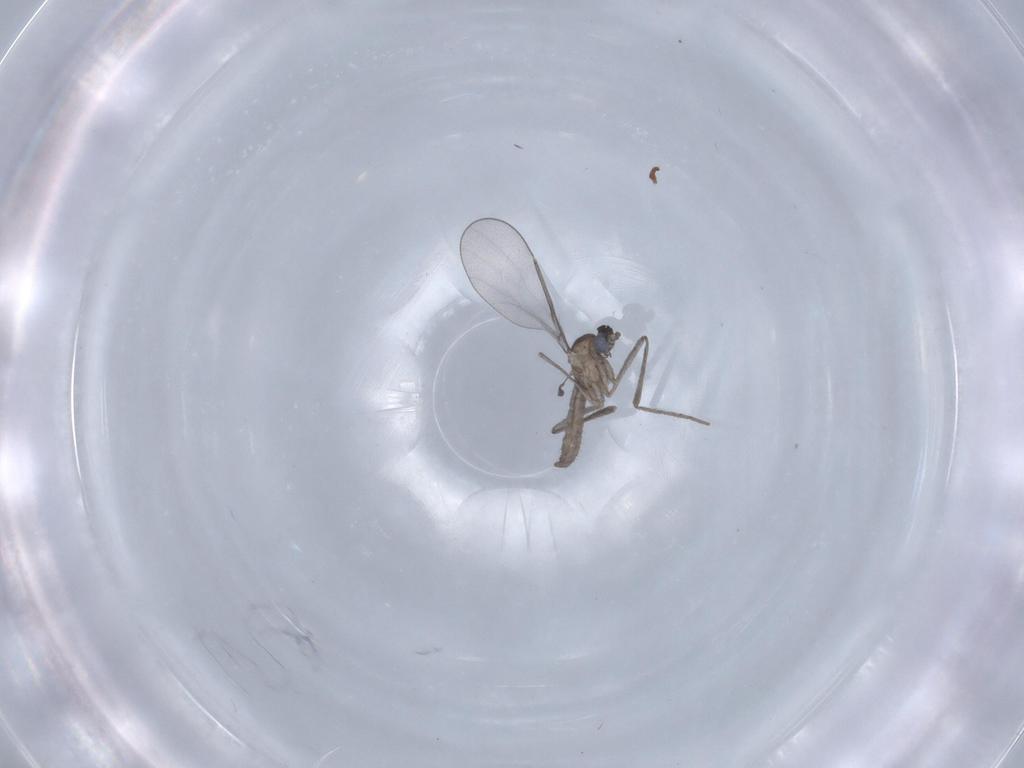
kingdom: Animalia
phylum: Arthropoda
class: Insecta
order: Diptera
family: Cecidomyiidae
